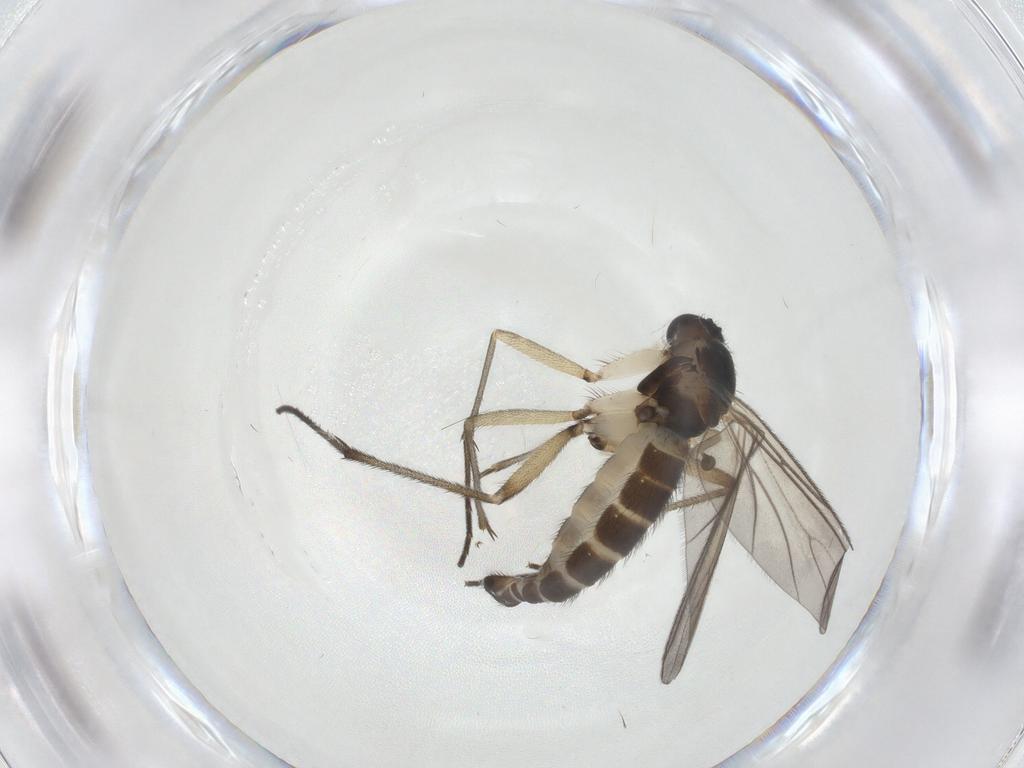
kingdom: Animalia
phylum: Arthropoda
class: Insecta
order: Diptera
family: Sciaridae
